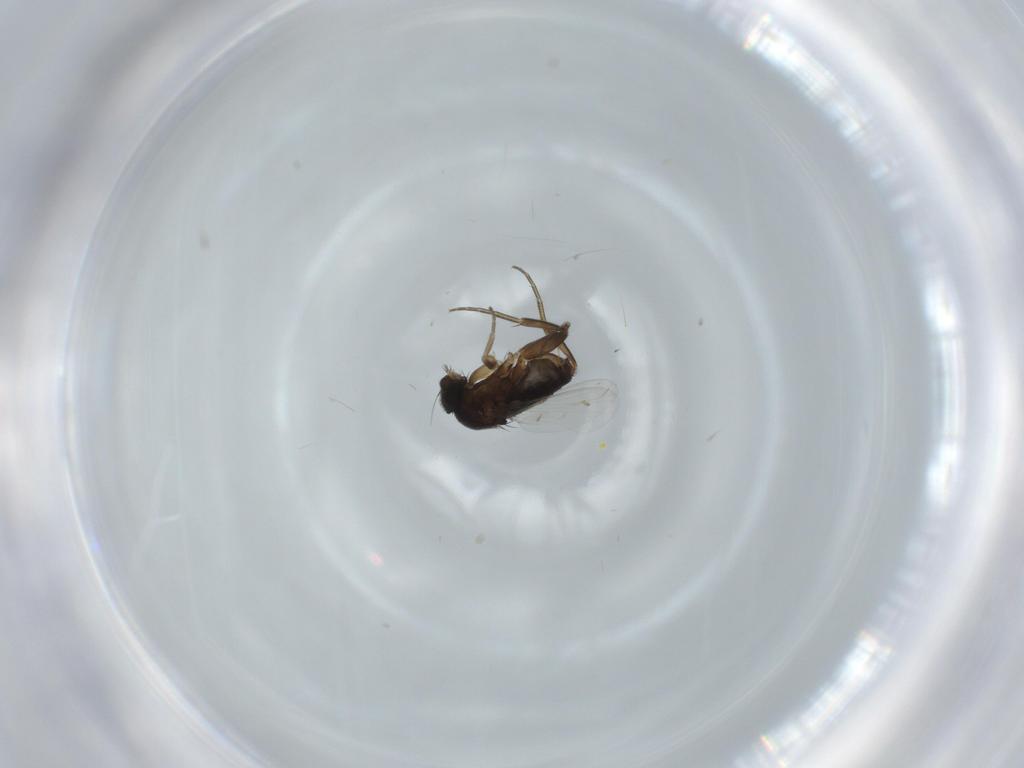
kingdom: Animalia
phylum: Arthropoda
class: Insecta
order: Diptera
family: Phoridae
